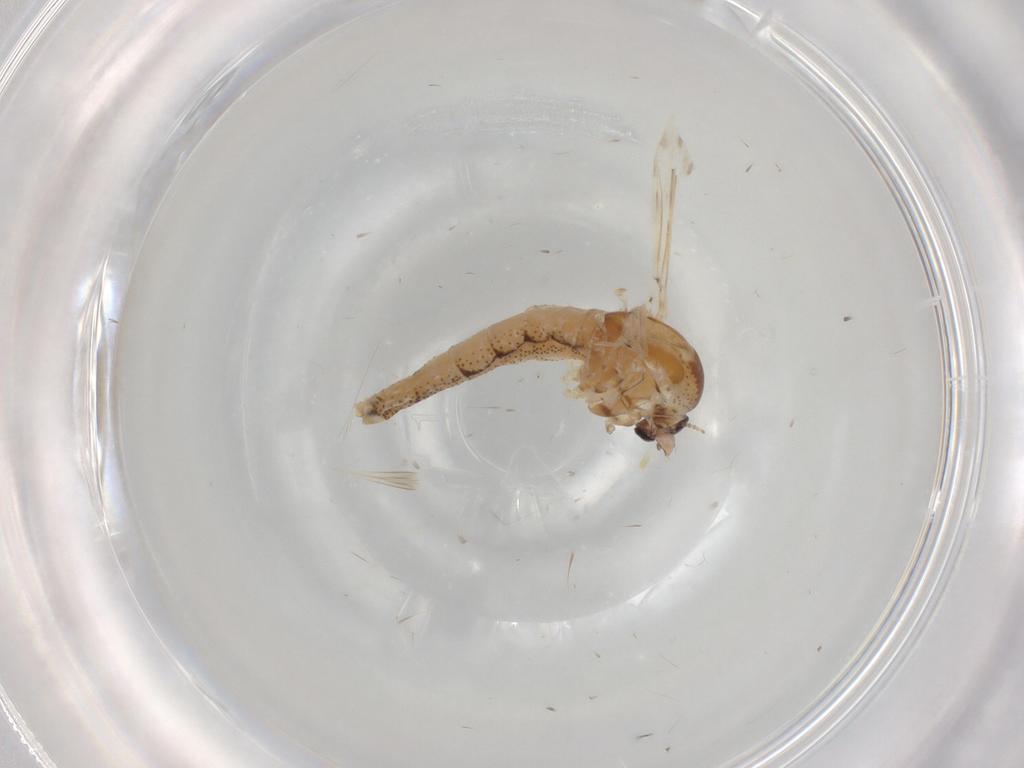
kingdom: Animalia
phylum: Arthropoda
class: Insecta
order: Diptera
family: Chaoboridae
